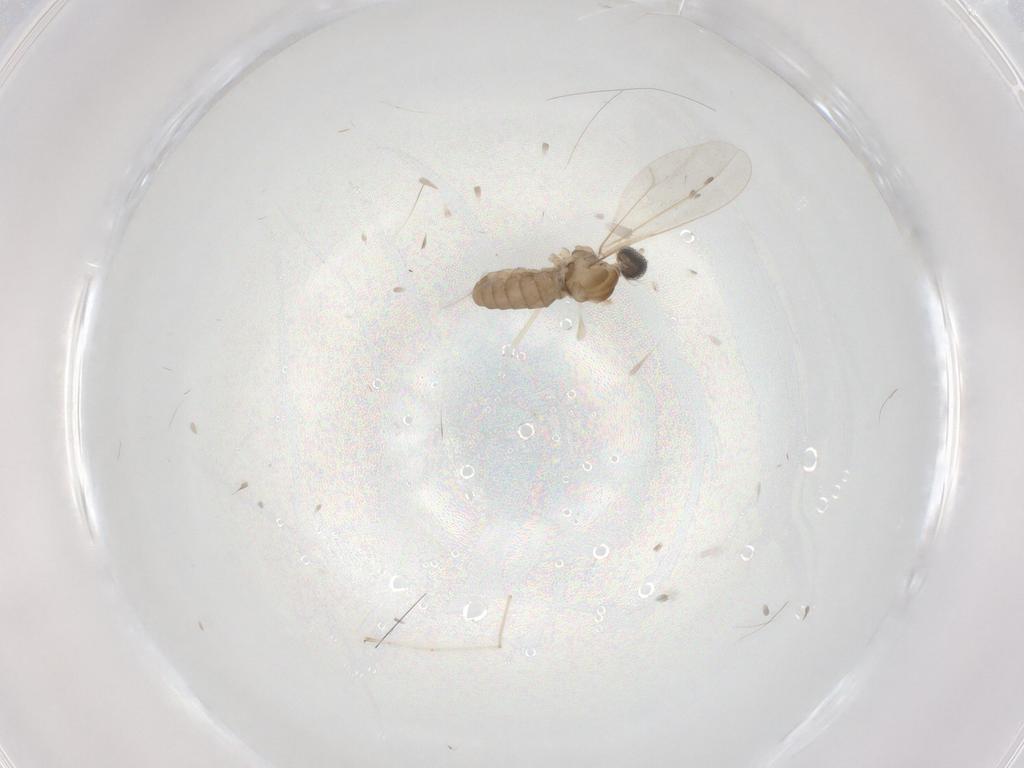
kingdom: Animalia
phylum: Arthropoda
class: Insecta
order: Diptera
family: Cecidomyiidae
